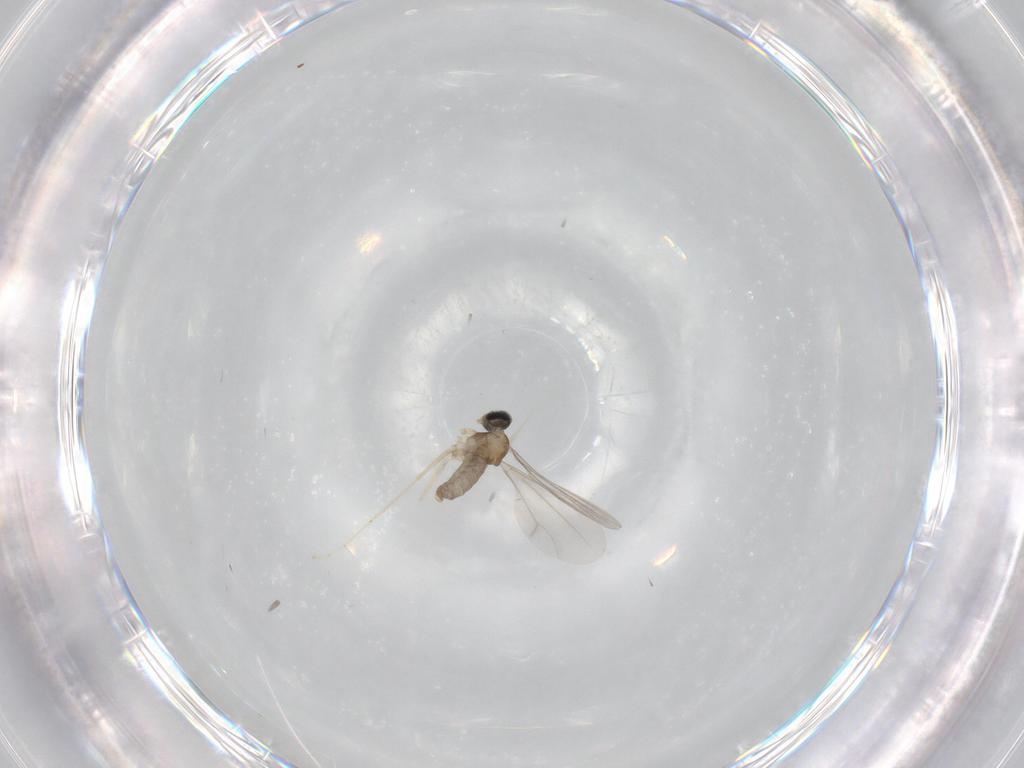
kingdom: Animalia
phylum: Arthropoda
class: Insecta
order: Diptera
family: Cecidomyiidae
